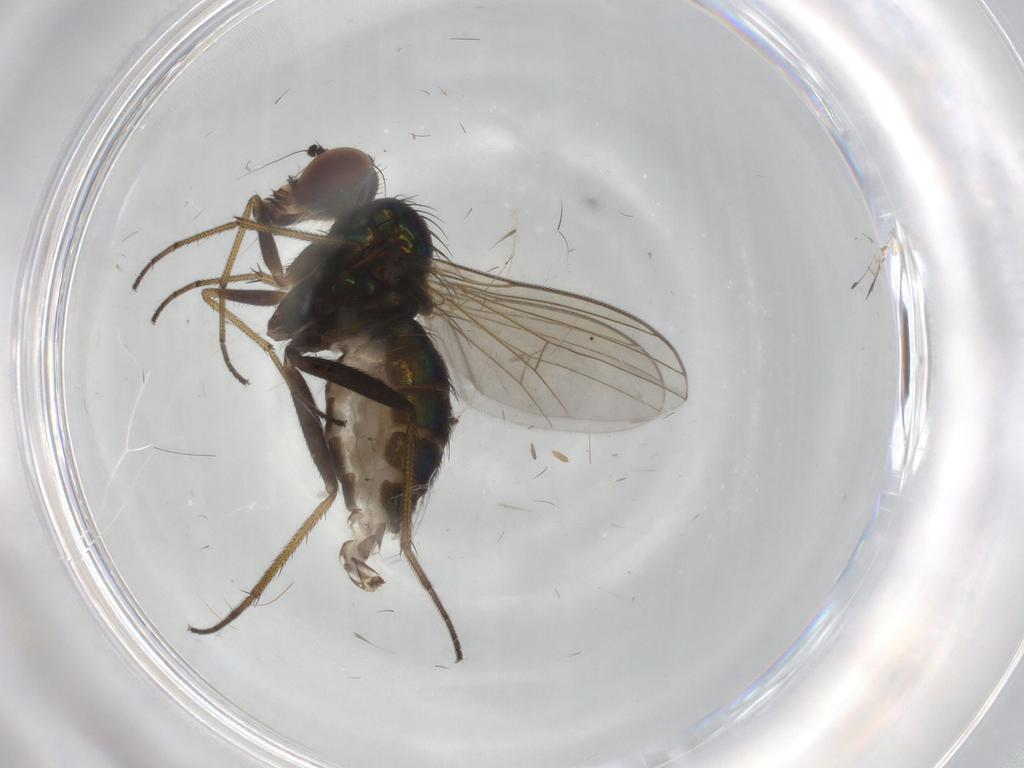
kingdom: Animalia
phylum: Arthropoda
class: Insecta
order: Diptera
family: Dolichopodidae
